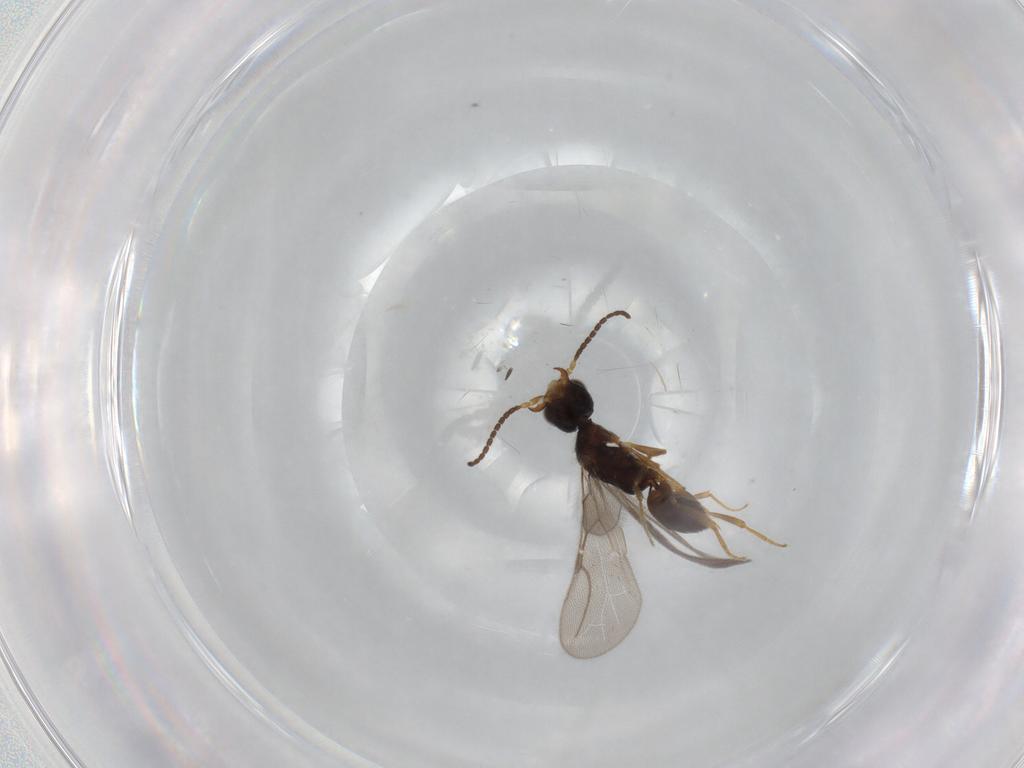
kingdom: Animalia
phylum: Arthropoda
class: Insecta
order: Hymenoptera
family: Bethylidae
